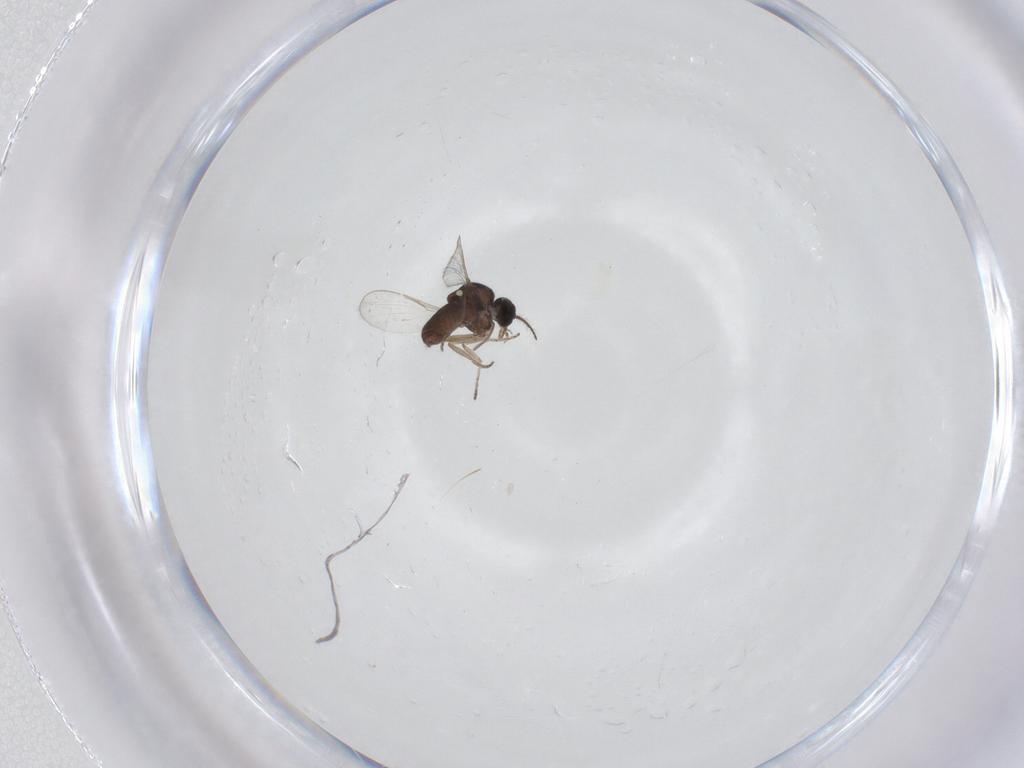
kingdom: Animalia
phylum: Arthropoda
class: Insecta
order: Diptera
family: Ceratopogonidae
